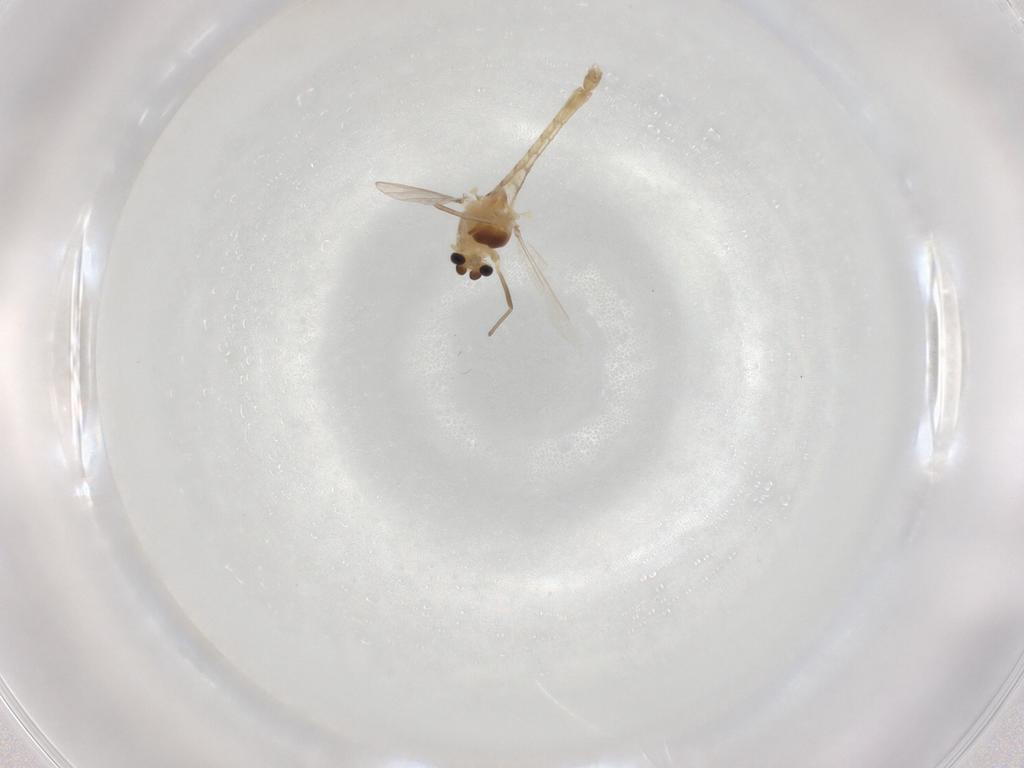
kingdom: Animalia
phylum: Arthropoda
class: Insecta
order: Diptera
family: Chironomidae
